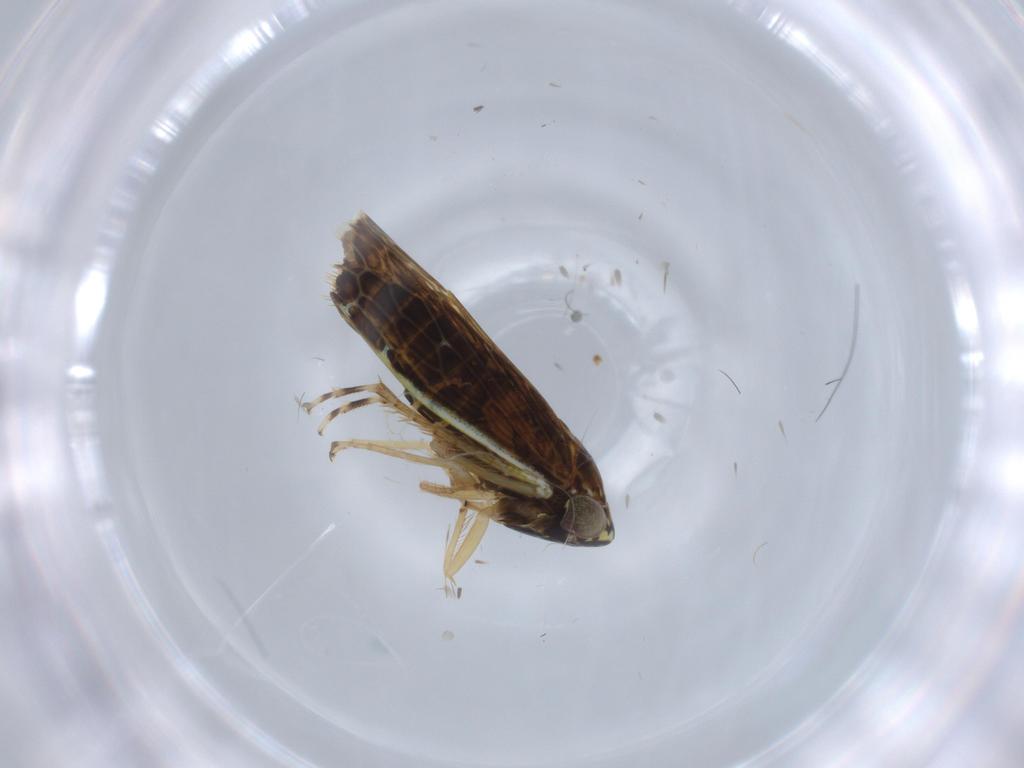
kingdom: Animalia
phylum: Arthropoda
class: Insecta
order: Hemiptera
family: Cicadellidae
